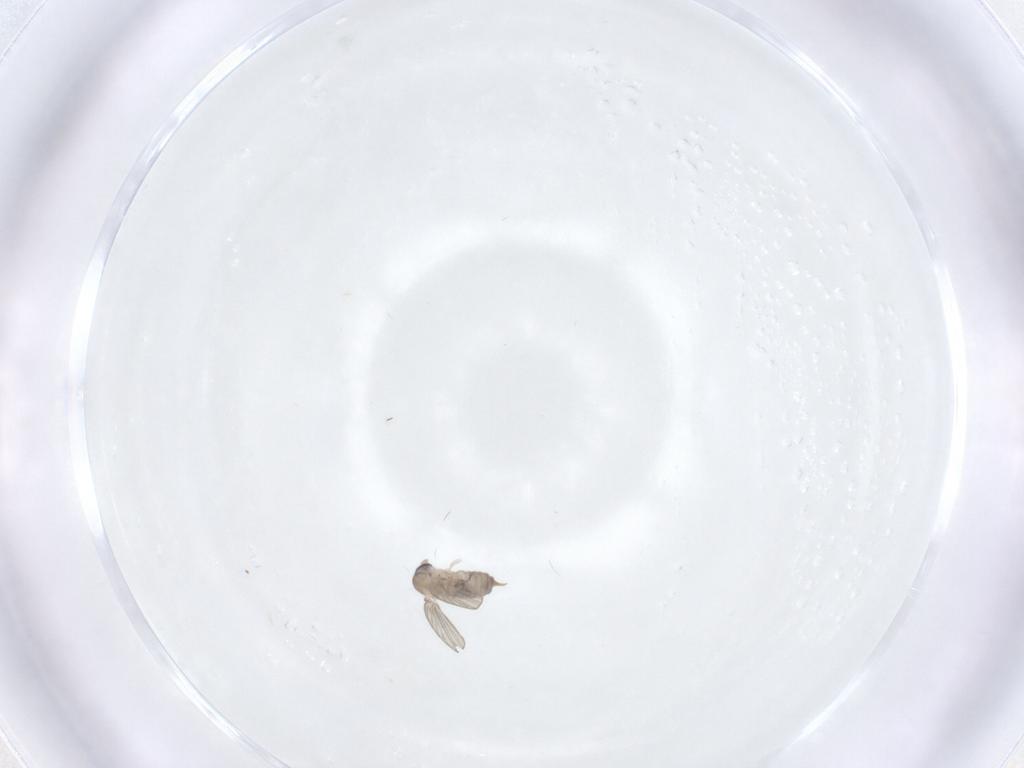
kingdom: Animalia
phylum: Arthropoda
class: Insecta
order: Diptera
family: Psychodidae
